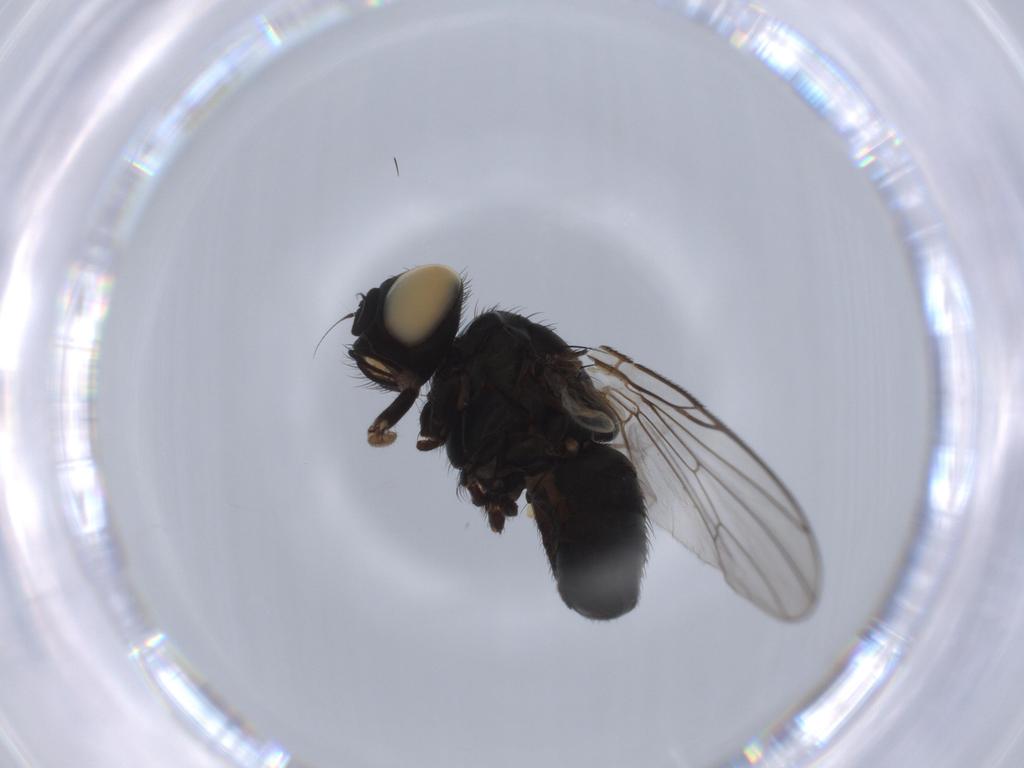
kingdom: Animalia
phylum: Arthropoda
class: Insecta
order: Diptera
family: Muscidae
